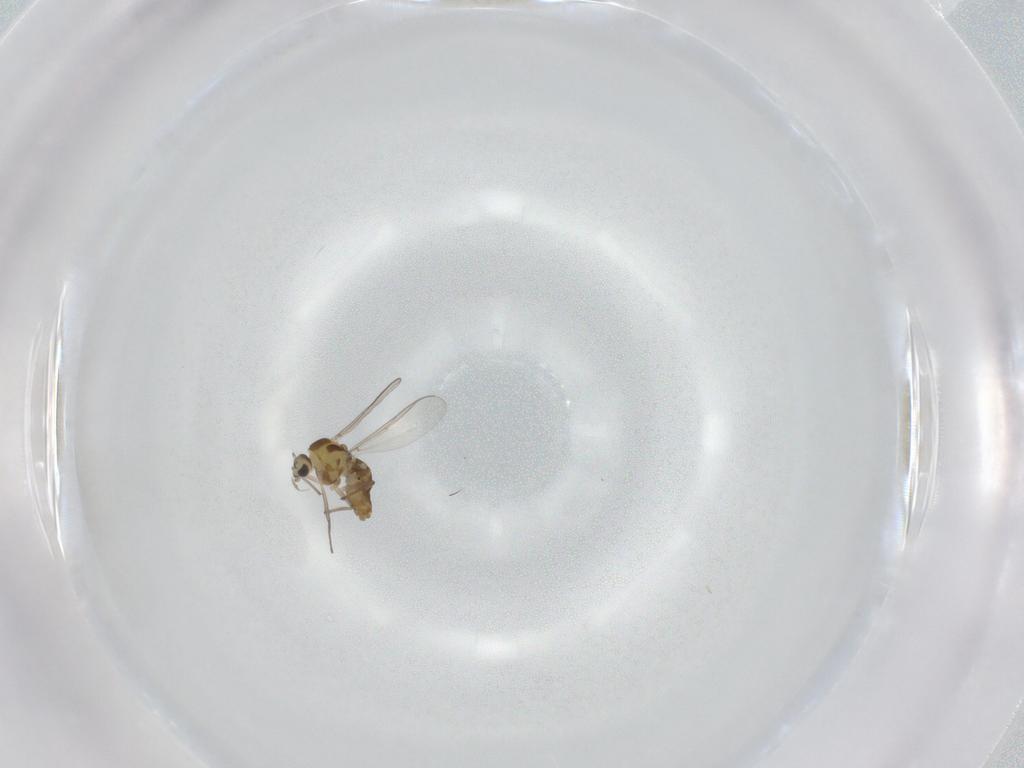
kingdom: Animalia
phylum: Arthropoda
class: Insecta
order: Diptera
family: Chironomidae
